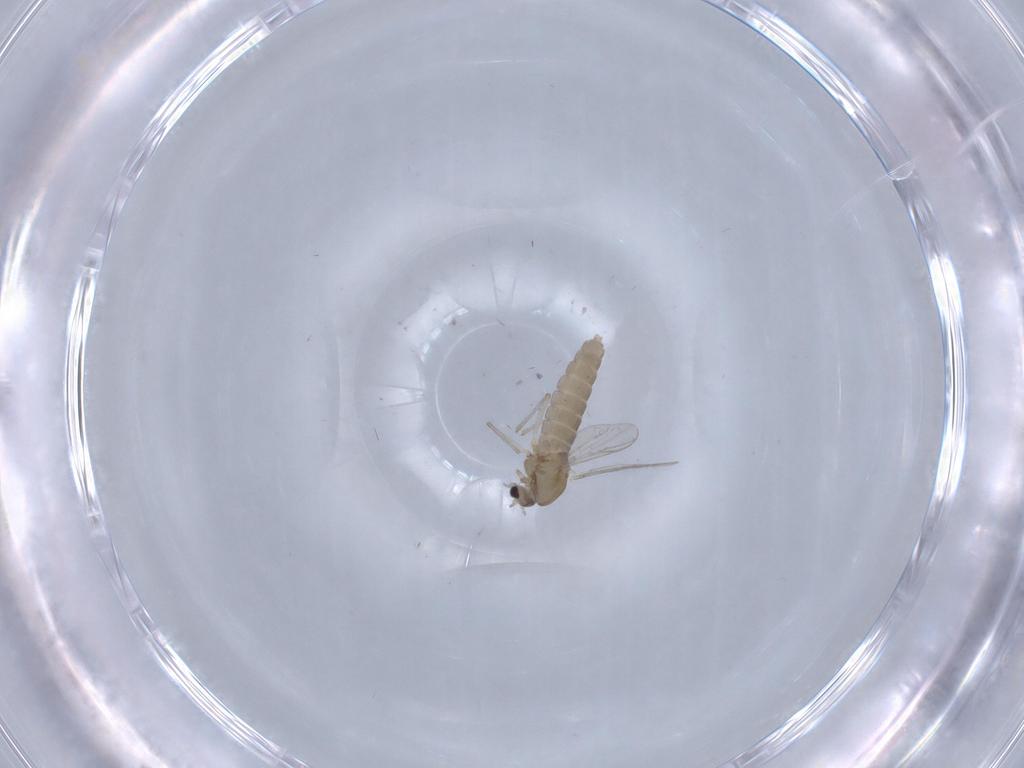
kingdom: Animalia
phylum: Arthropoda
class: Insecta
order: Diptera
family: Chironomidae
